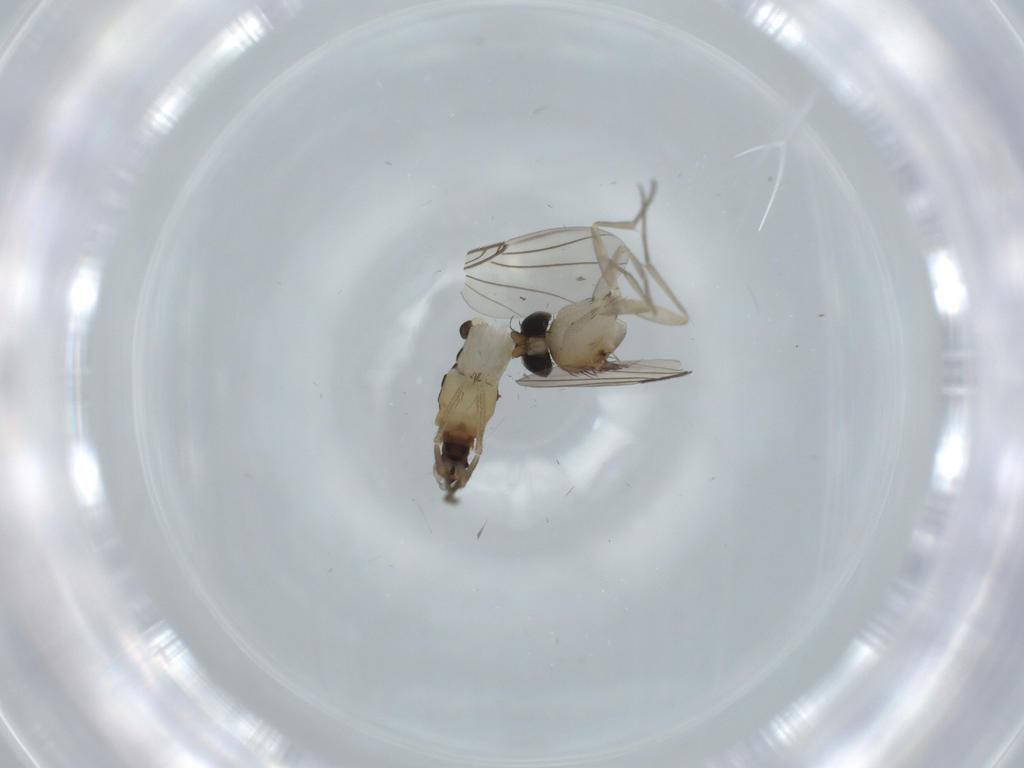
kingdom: Animalia
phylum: Arthropoda
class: Insecta
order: Diptera
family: Phoridae
